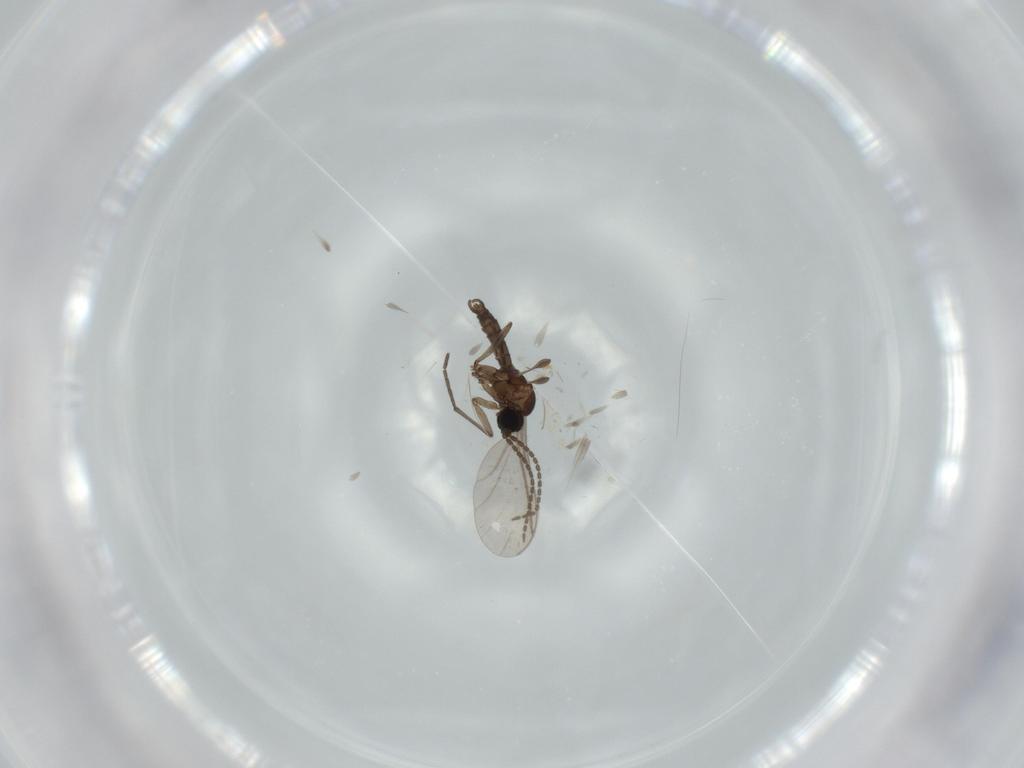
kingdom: Animalia
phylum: Arthropoda
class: Insecta
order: Diptera
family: Sciaridae
